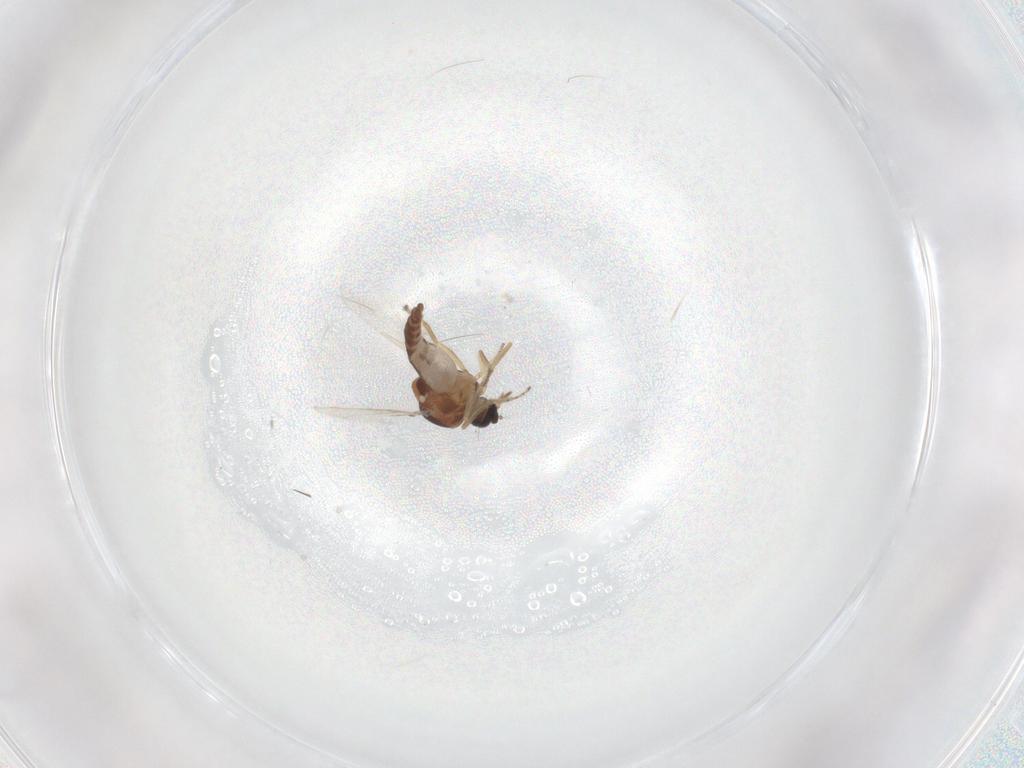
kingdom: Animalia
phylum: Arthropoda
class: Insecta
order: Diptera
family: Ceratopogonidae
